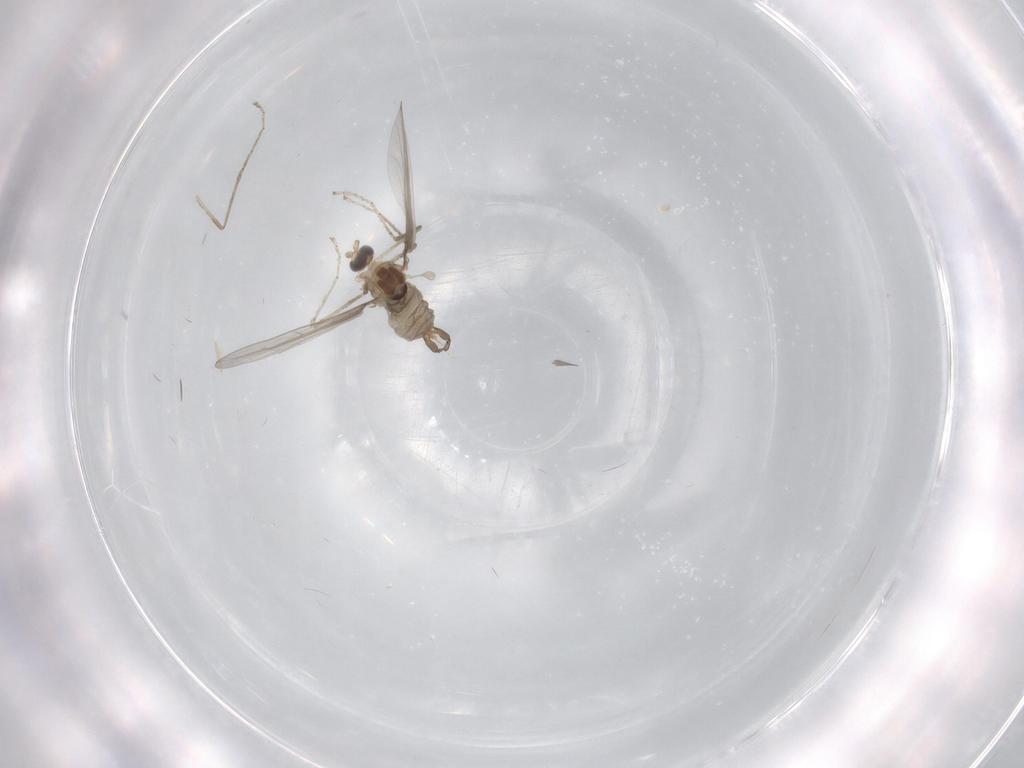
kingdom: Animalia
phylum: Arthropoda
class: Insecta
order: Diptera
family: Cecidomyiidae
